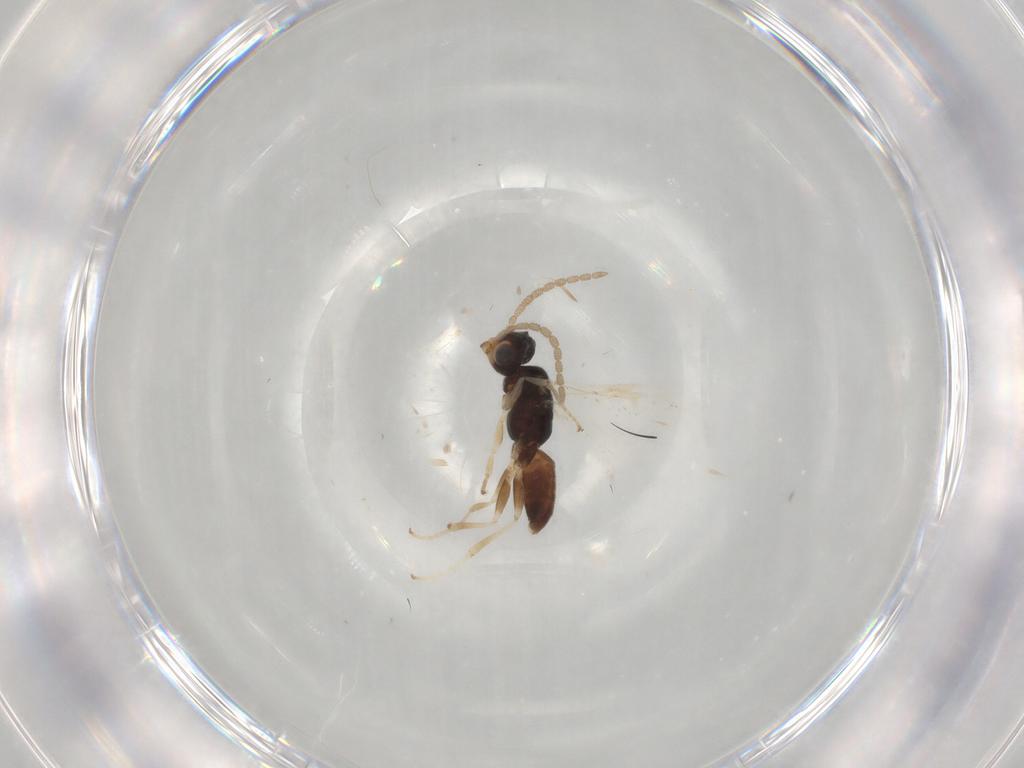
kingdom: Animalia
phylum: Arthropoda
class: Insecta
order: Hymenoptera
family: Dryinidae
